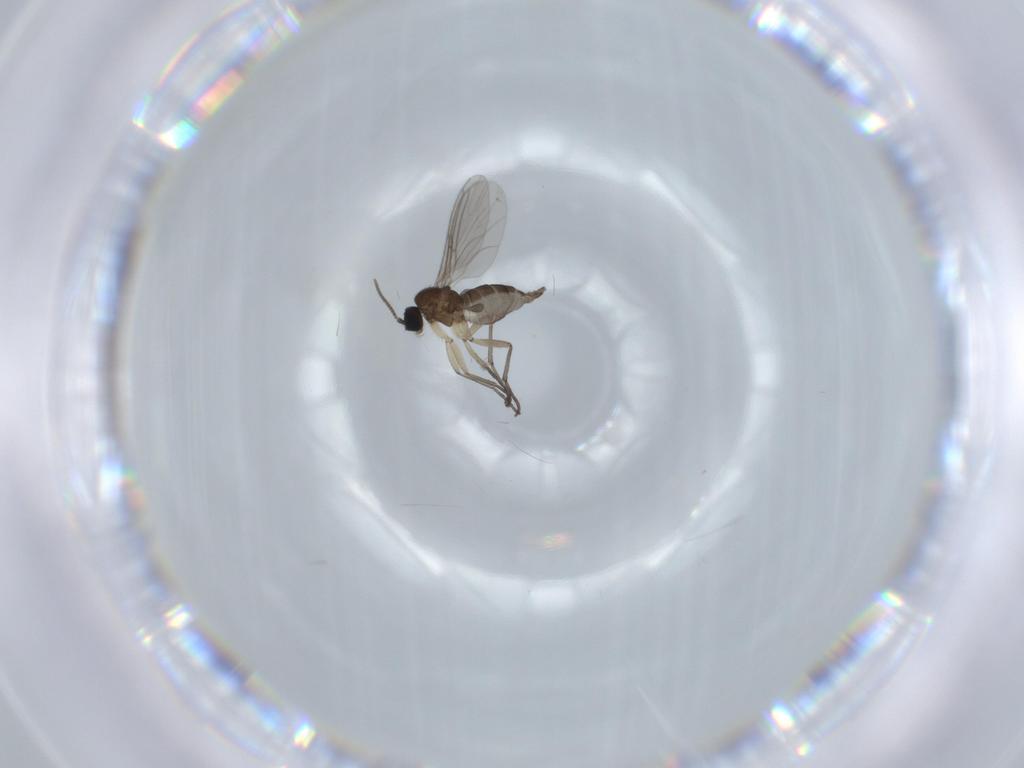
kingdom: Animalia
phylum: Arthropoda
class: Insecta
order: Diptera
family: Sciaridae
